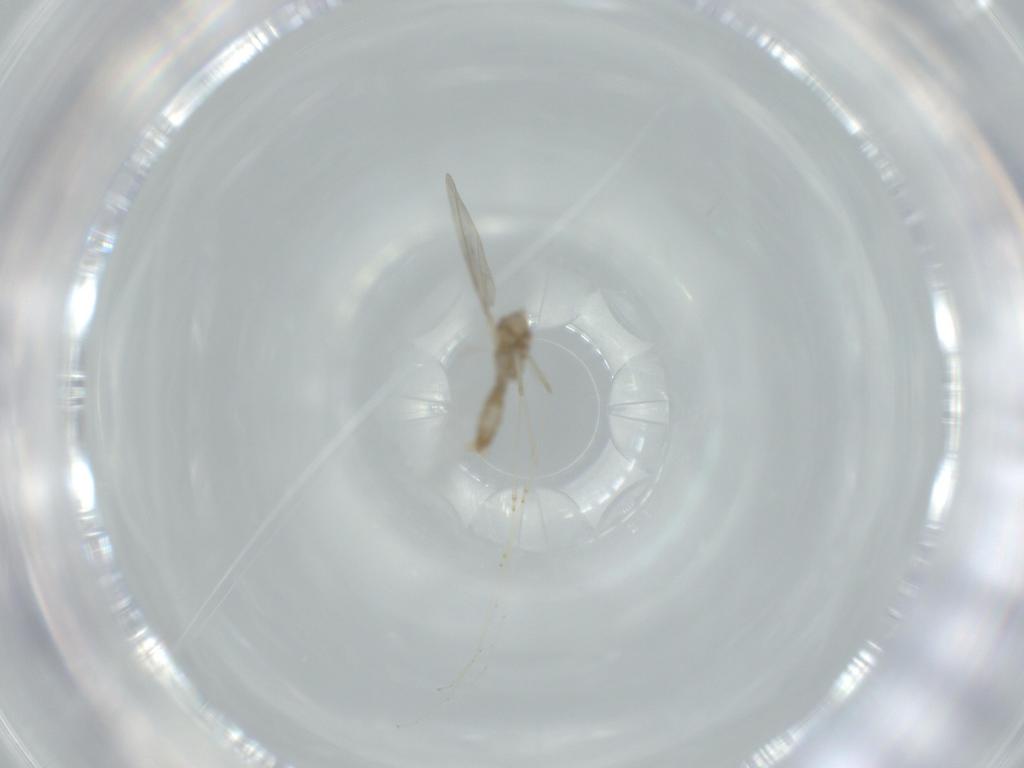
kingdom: Animalia
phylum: Arthropoda
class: Insecta
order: Diptera
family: Cecidomyiidae
